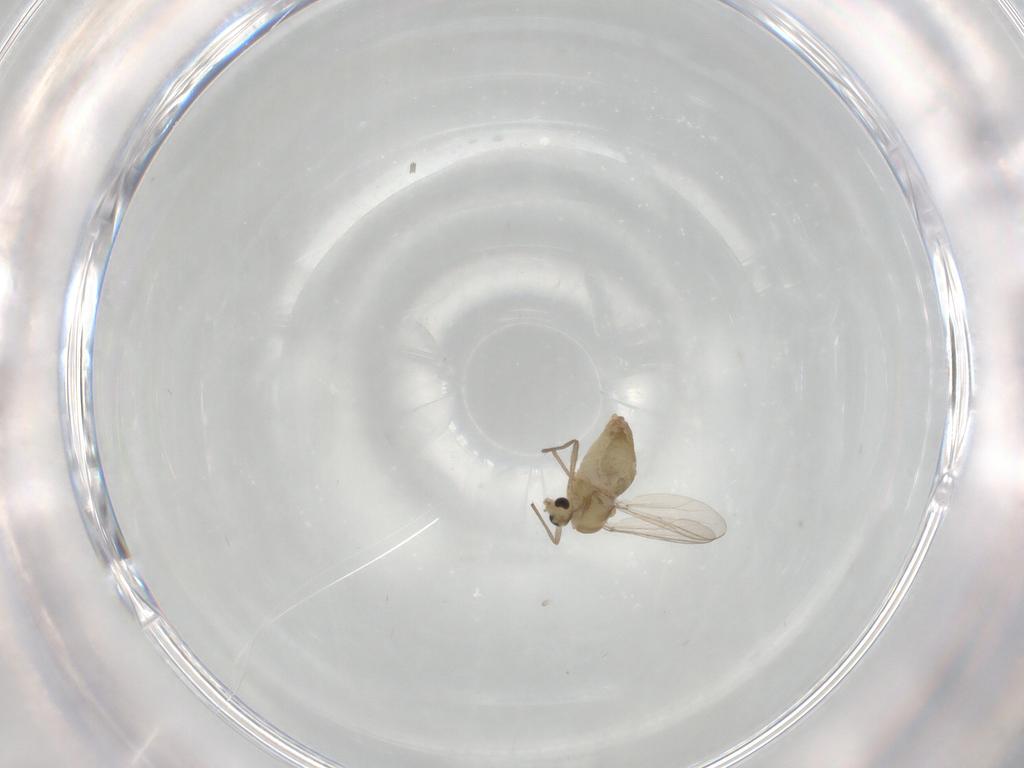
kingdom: Animalia
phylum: Arthropoda
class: Insecta
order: Diptera
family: Chironomidae
